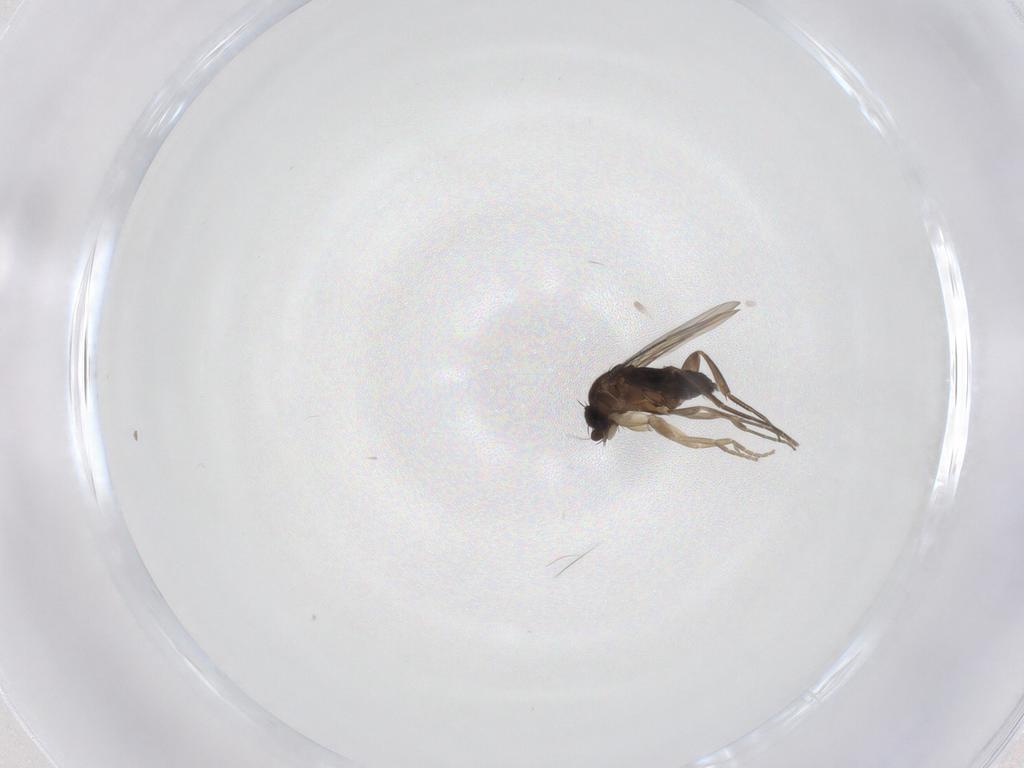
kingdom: Animalia
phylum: Arthropoda
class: Insecta
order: Diptera
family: Phoridae
